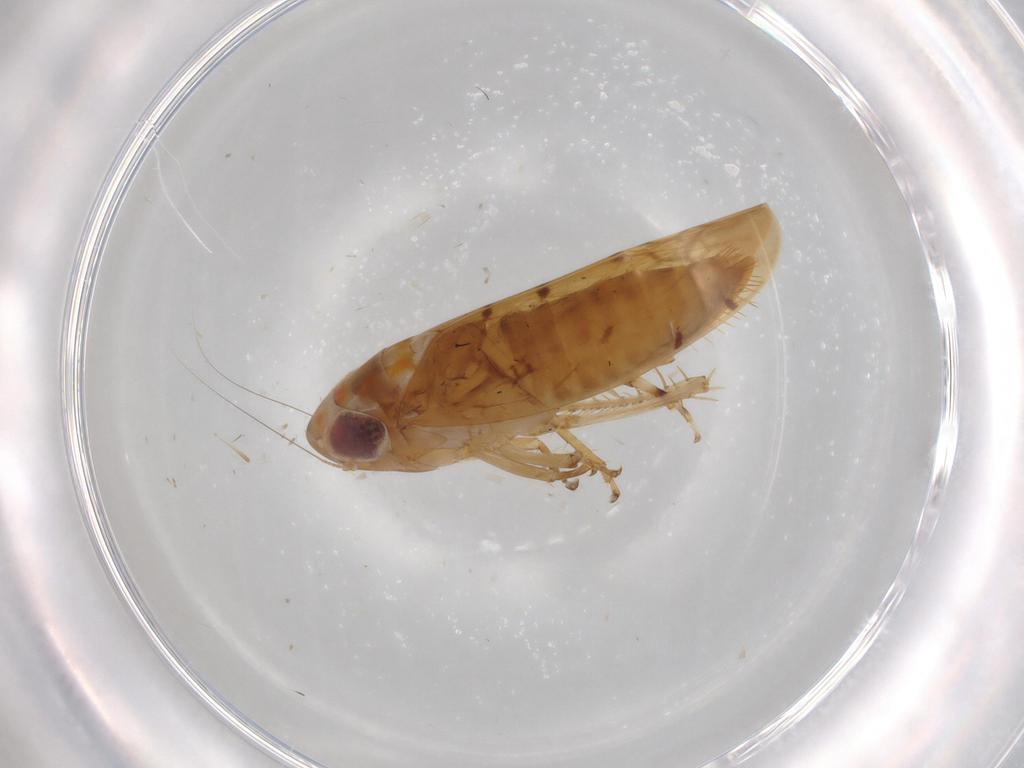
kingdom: Animalia
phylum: Arthropoda
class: Insecta
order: Hemiptera
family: Cicadellidae
